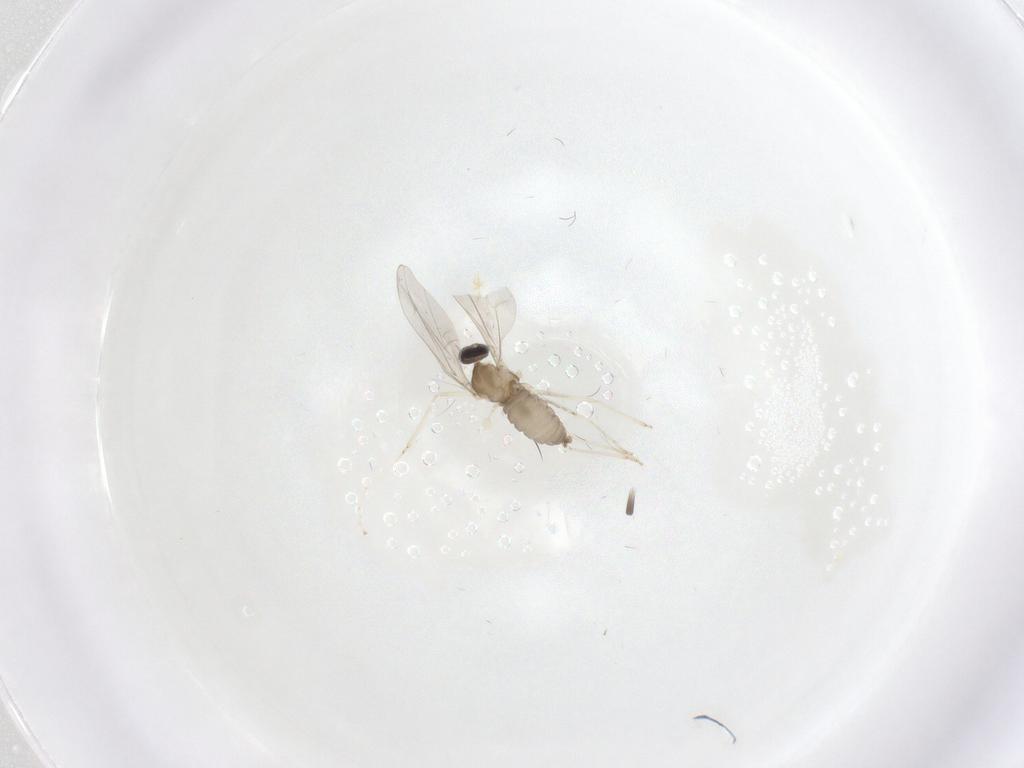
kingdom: Animalia
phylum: Arthropoda
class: Insecta
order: Diptera
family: Cecidomyiidae
